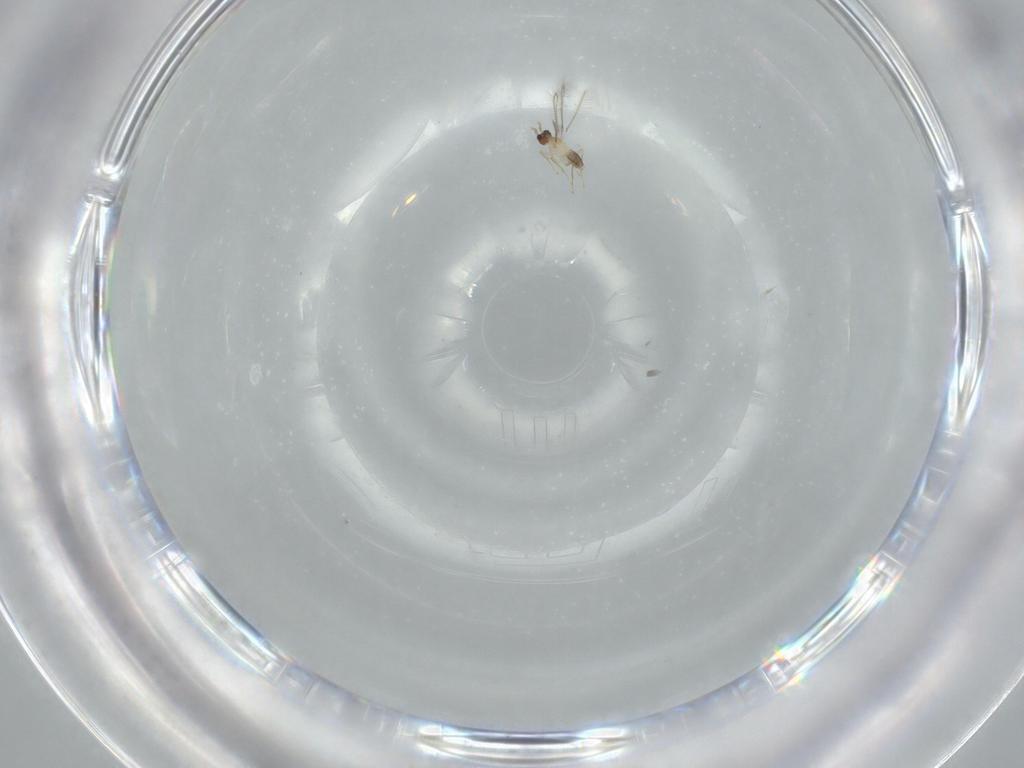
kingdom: Animalia
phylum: Arthropoda
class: Insecta
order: Hymenoptera
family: Mymaridae
